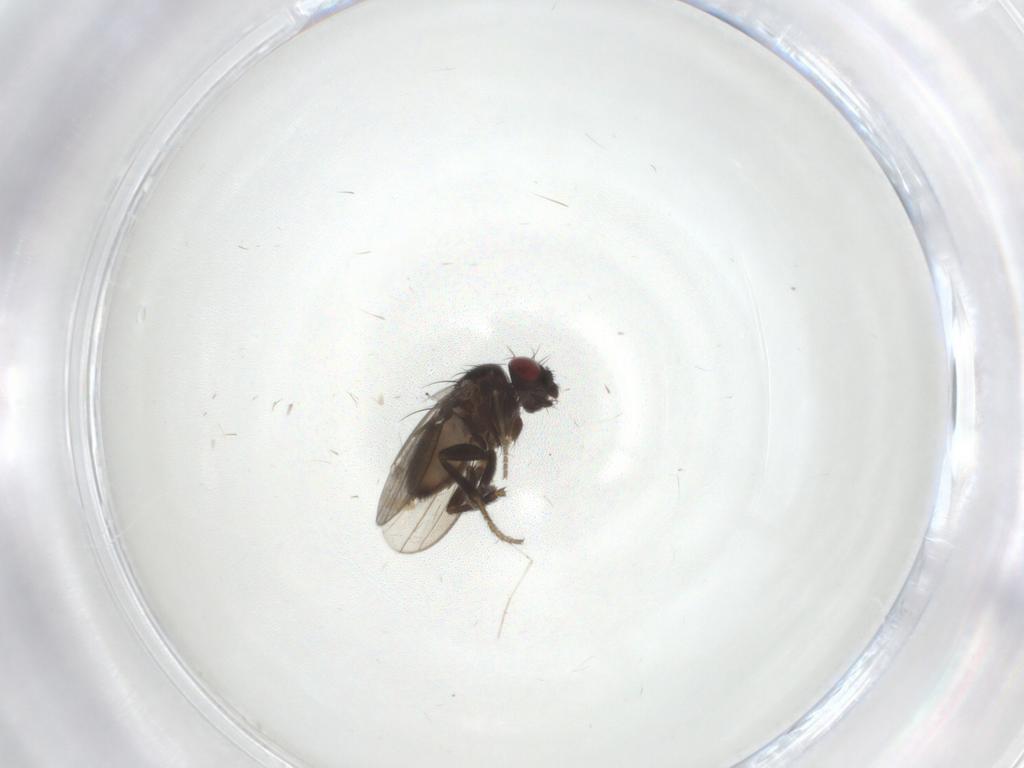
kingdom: Animalia
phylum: Arthropoda
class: Insecta
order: Diptera
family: Milichiidae
